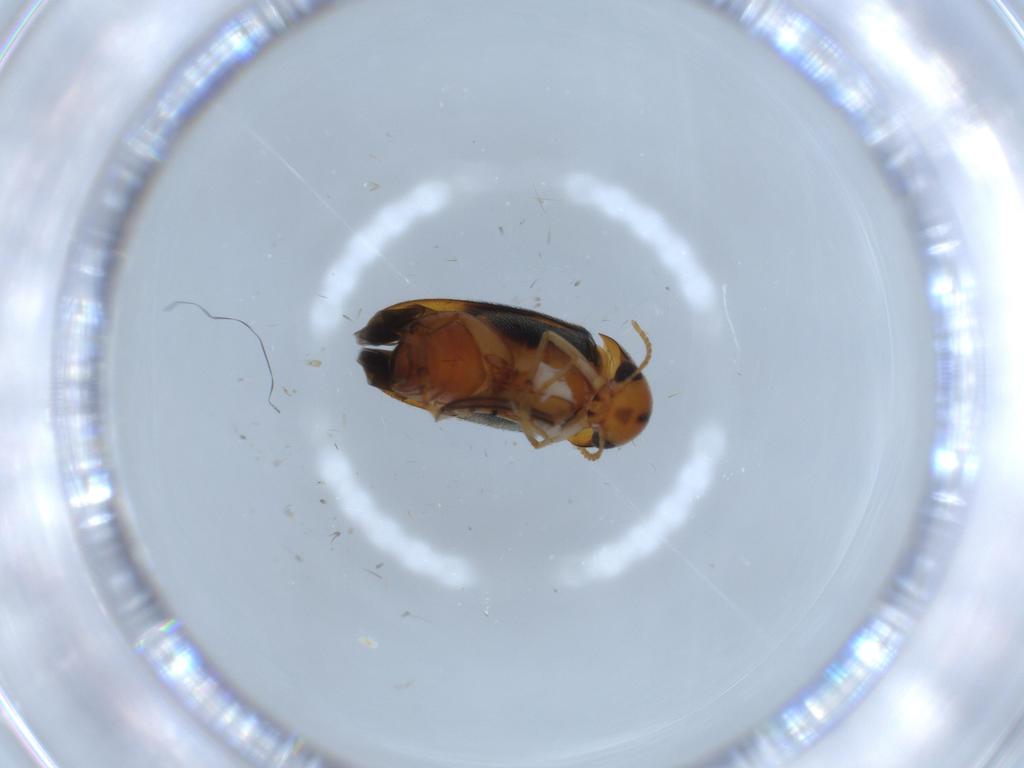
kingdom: Animalia
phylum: Arthropoda
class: Insecta
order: Coleoptera
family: Mordellidae
